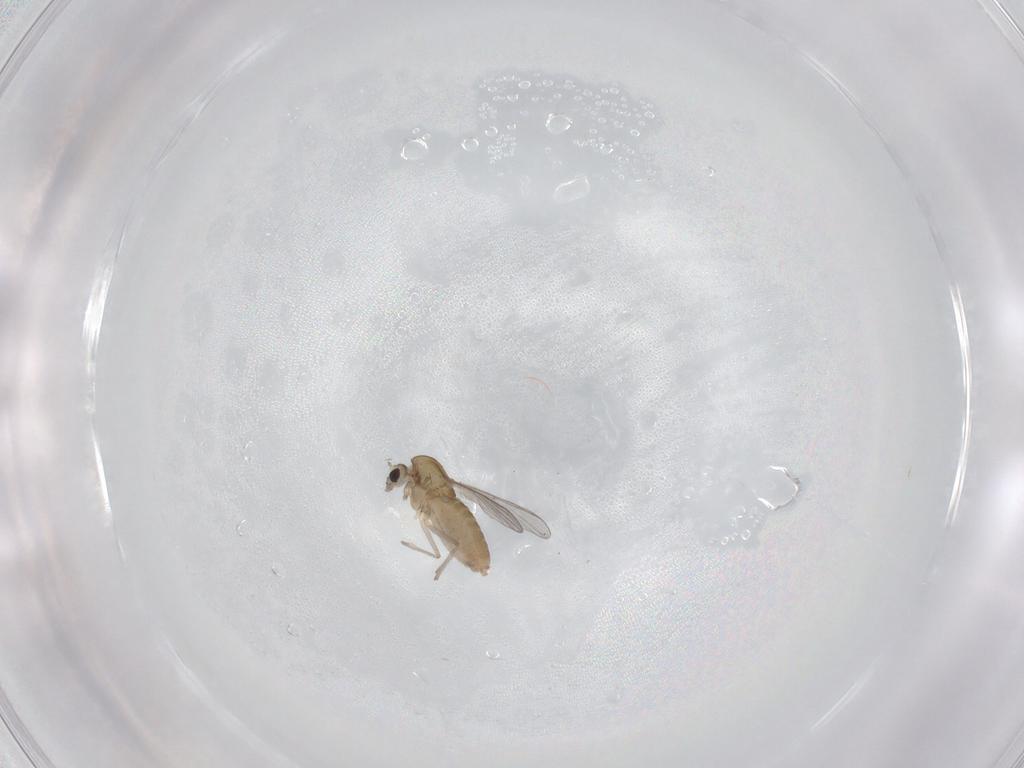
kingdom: Animalia
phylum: Arthropoda
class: Insecta
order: Diptera
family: Chironomidae
